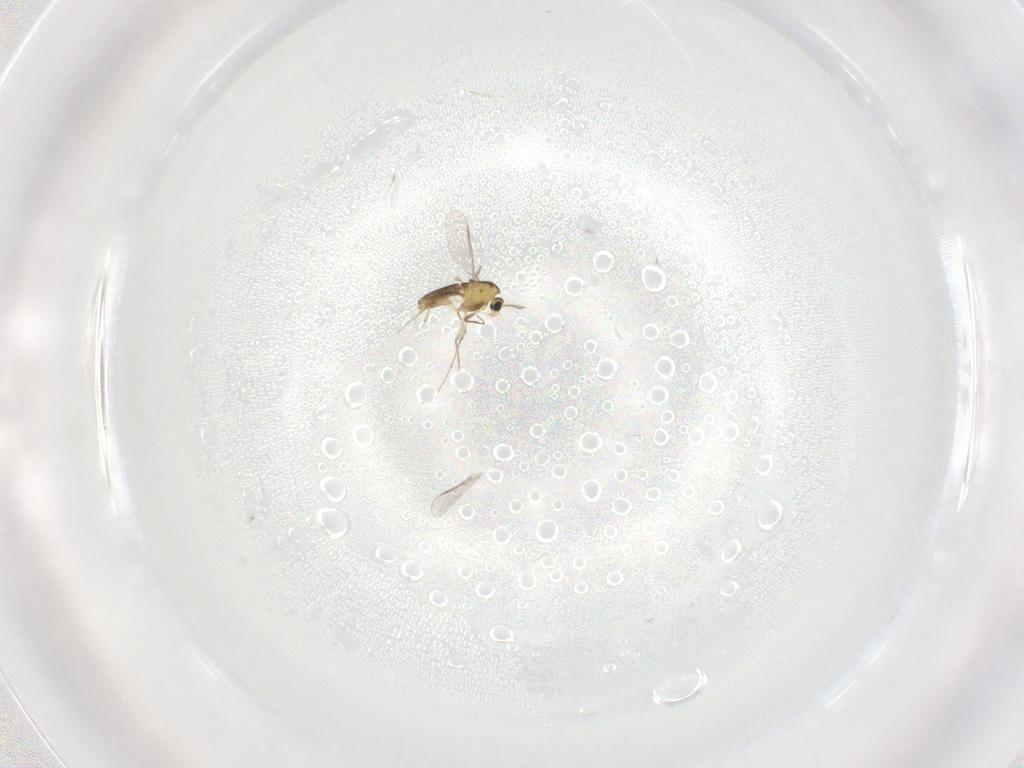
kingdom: Animalia
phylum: Arthropoda
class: Insecta
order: Diptera
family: Chironomidae
